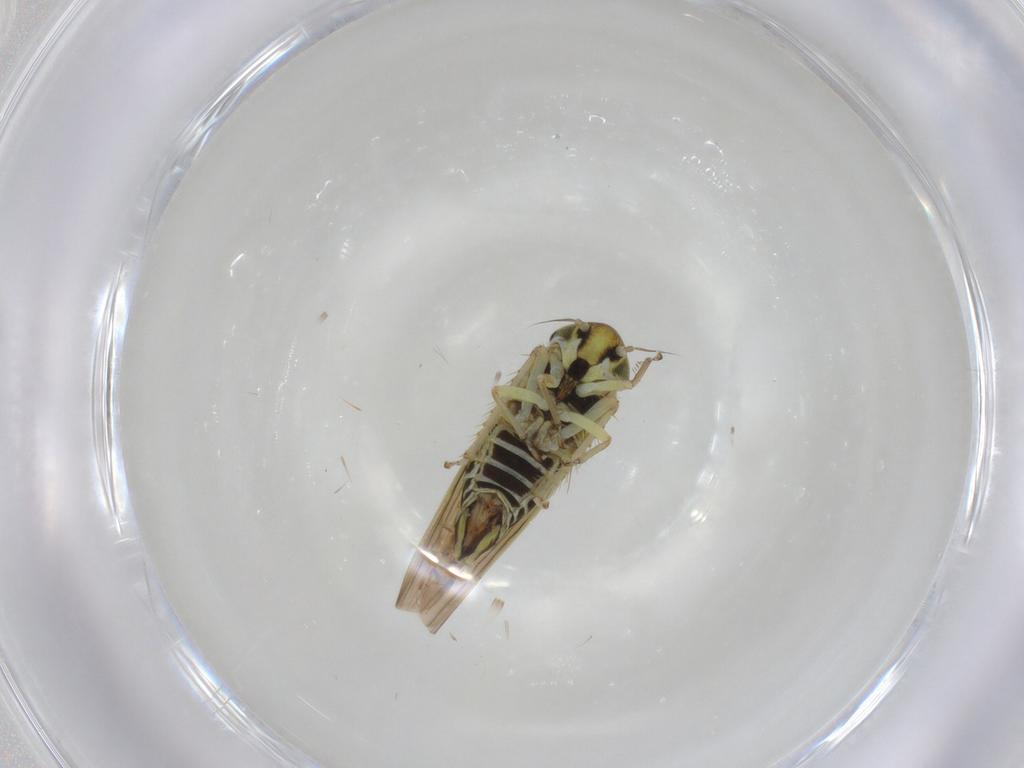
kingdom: Animalia
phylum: Arthropoda
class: Insecta
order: Hemiptera
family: Cicadellidae
